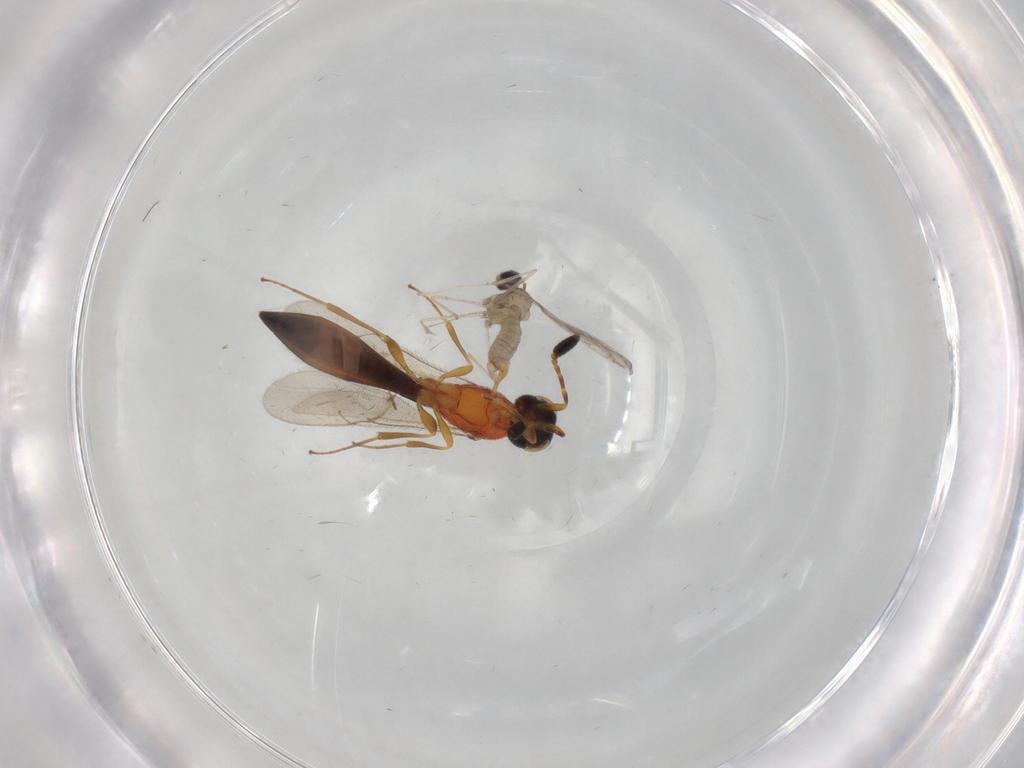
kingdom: Animalia
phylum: Arthropoda
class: Insecta
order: Diptera
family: Cecidomyiidae
